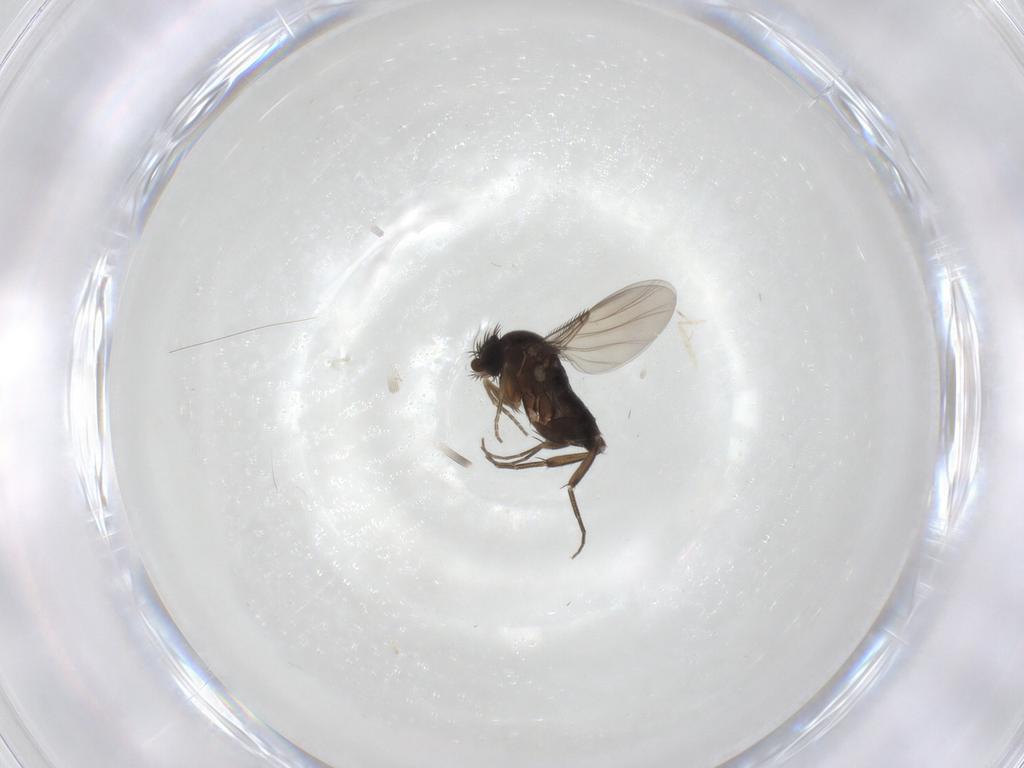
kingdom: Animalia
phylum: Arthropoda
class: Insecta
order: Diptera
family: Phoridae
